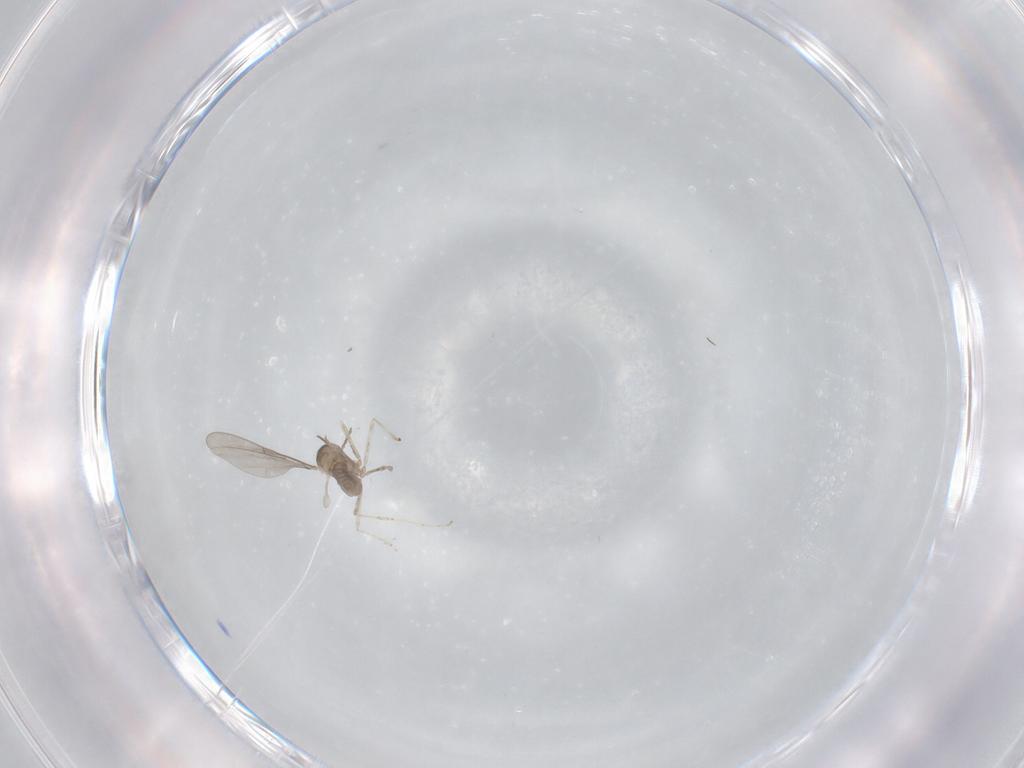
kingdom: Animalia
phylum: Arthropoda
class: Insecta
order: Diptera
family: Cecidomyiidae
